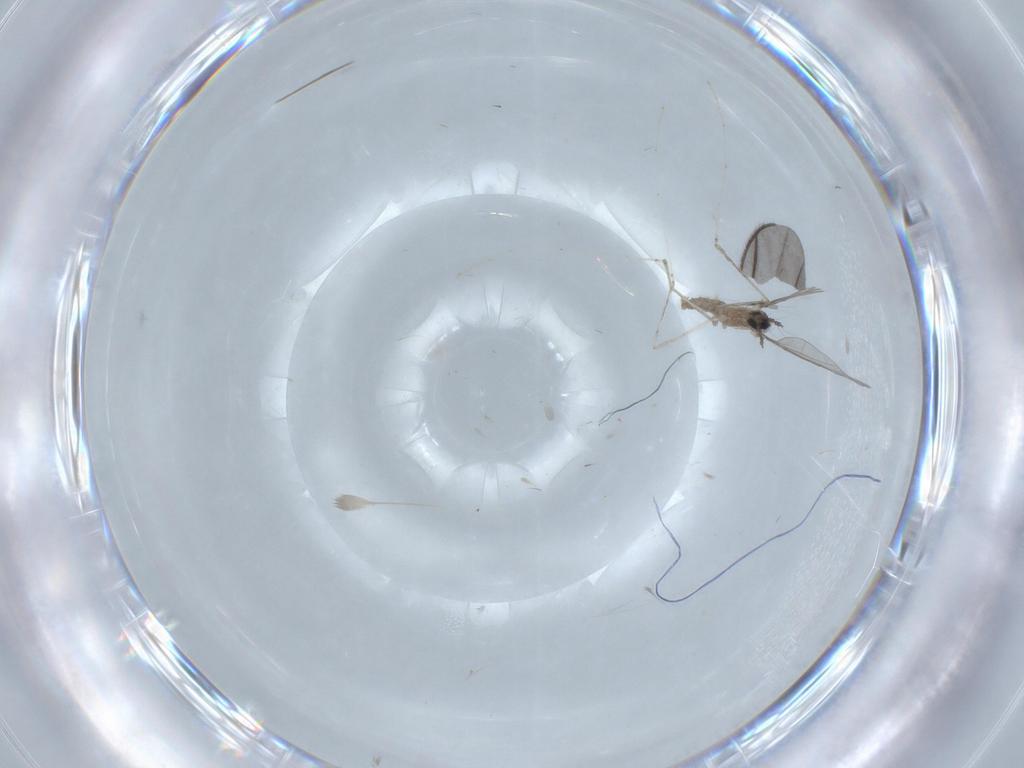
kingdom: Animalia
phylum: Arthropoda
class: Insecta
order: Diptera
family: Cecidomyiidae
